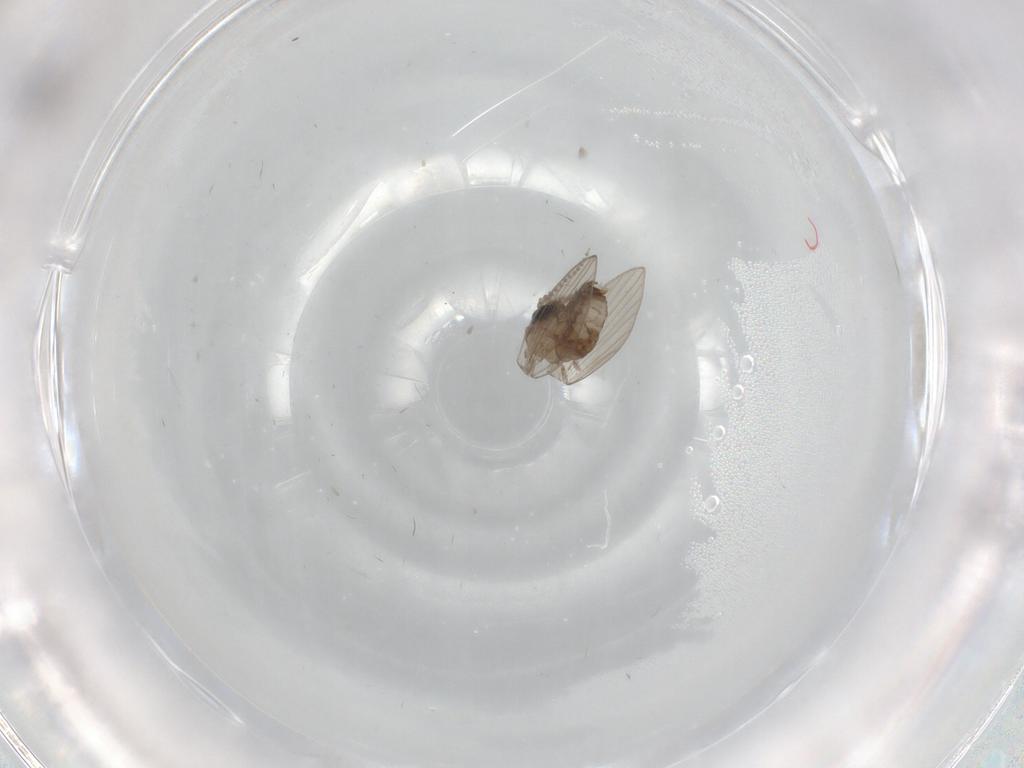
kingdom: Animalia
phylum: Arthropoda
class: Insecta
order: Diptera
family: Psychodidae
